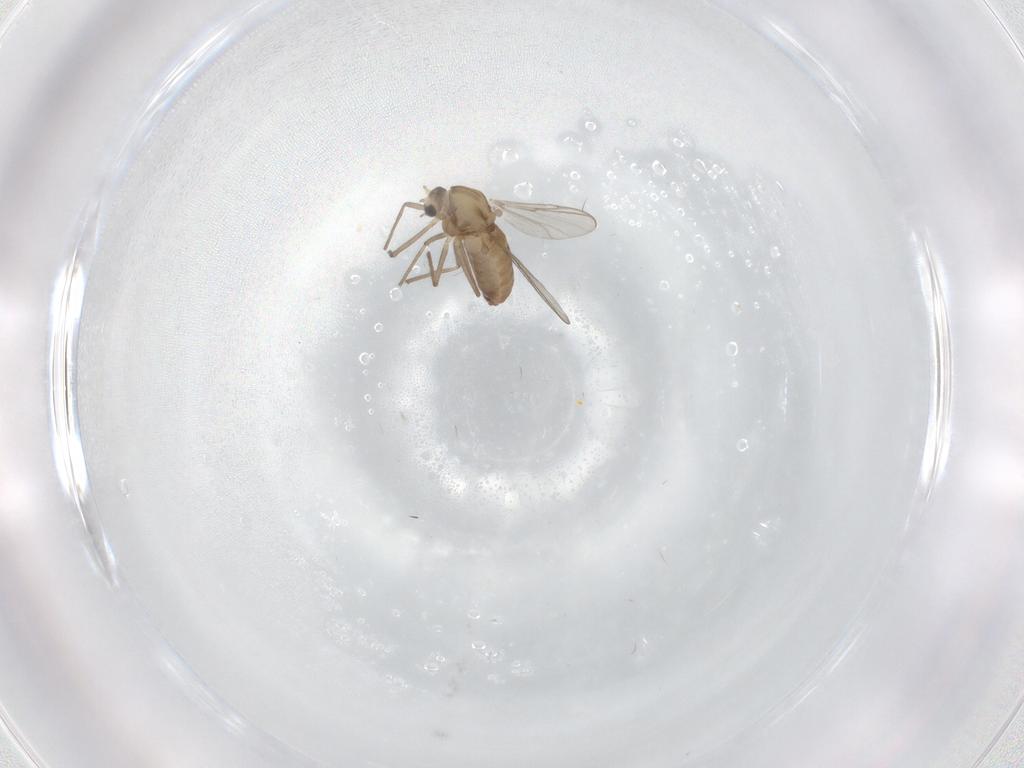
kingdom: Animalia
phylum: Arthropoda
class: Insecta
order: Diptera
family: Chironomidae
